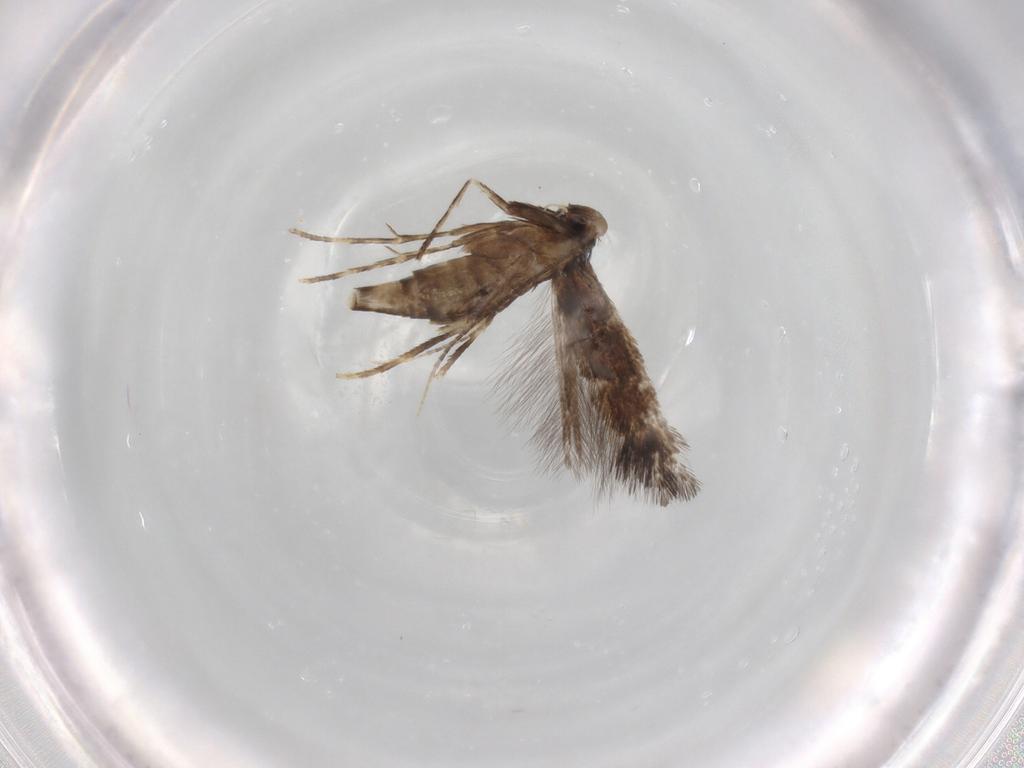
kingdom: Animalia
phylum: Arthropoda
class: Insecta
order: Lepidoptera
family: Gracillariidae
